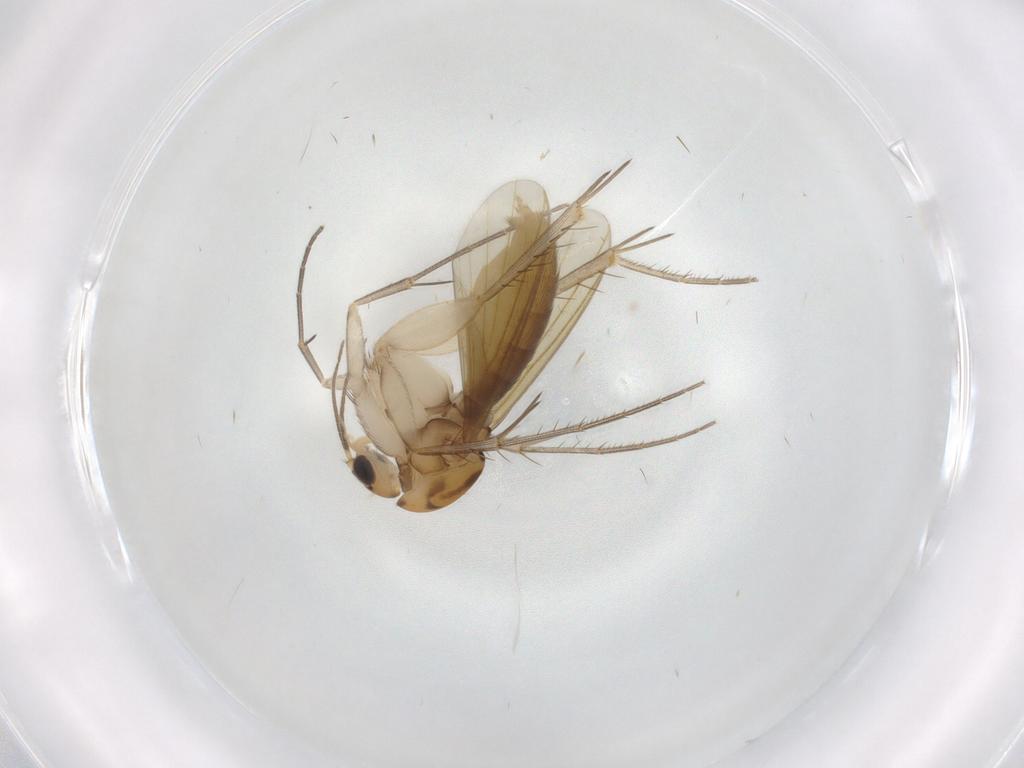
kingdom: Animalia
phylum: Arthropoda
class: Insecta
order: Diptera
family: Mycetophilidae
